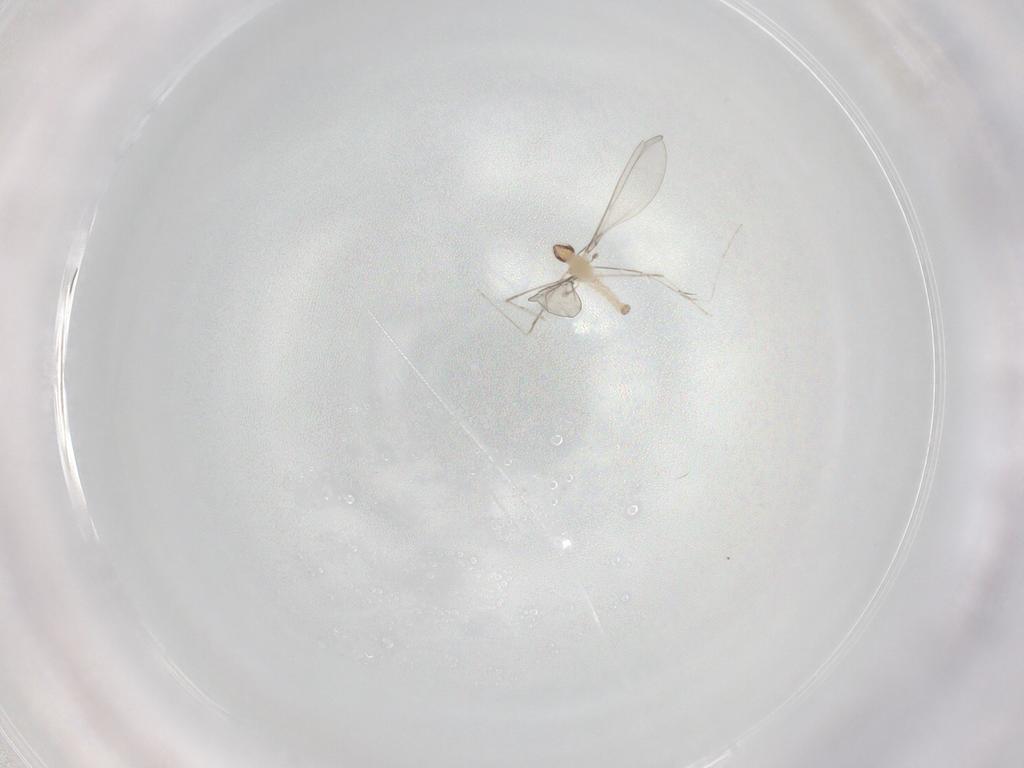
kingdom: Animalia
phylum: Arthropoda
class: Insecta
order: Diptera
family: Cecidomyiidae
